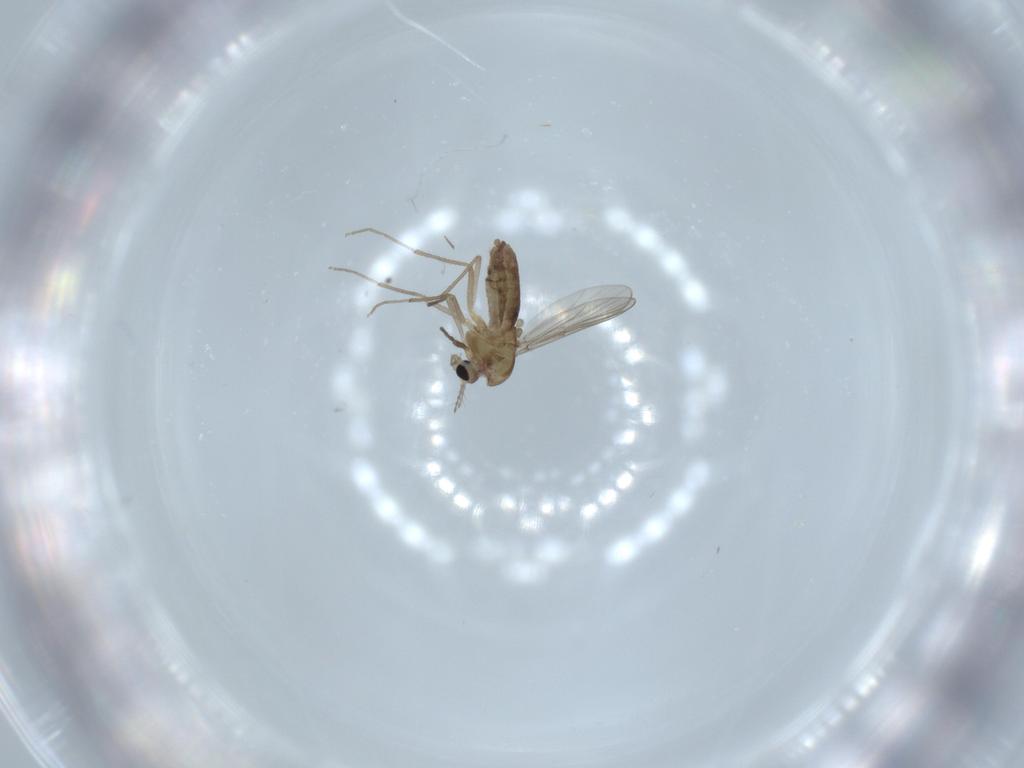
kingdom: Animalia
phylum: Arthropoda
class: Insecta
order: Diptera
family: Chironomidae
